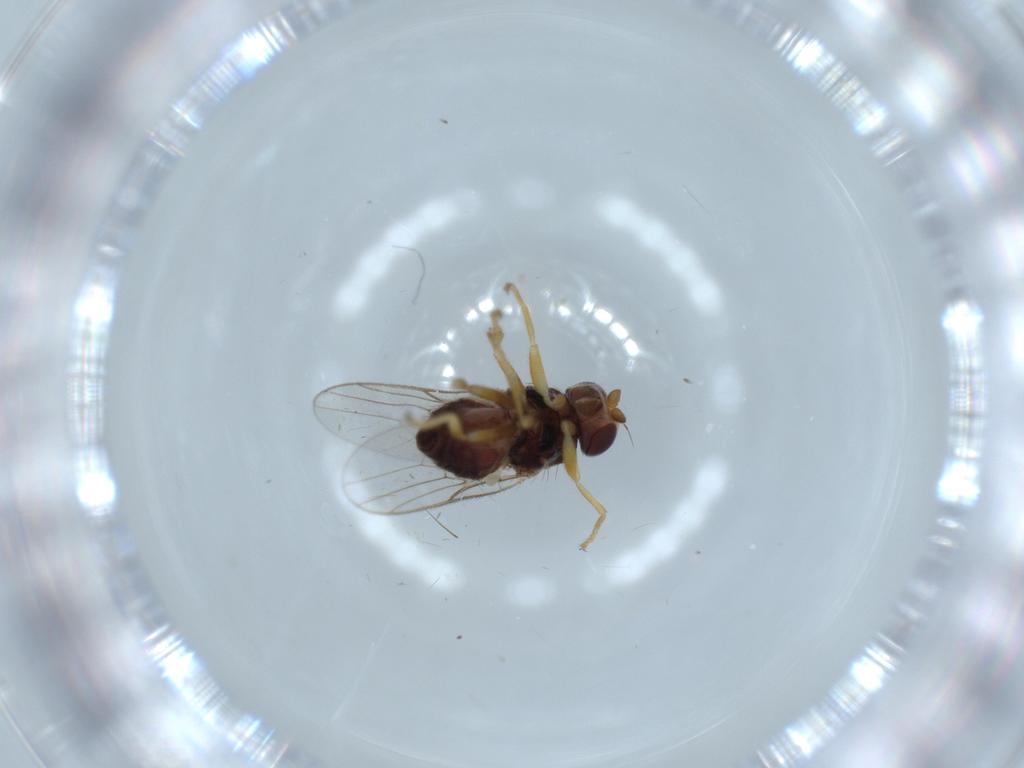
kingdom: Animalia
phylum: Arthropoda
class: Insecta
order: Diptera
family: Chloropidae
